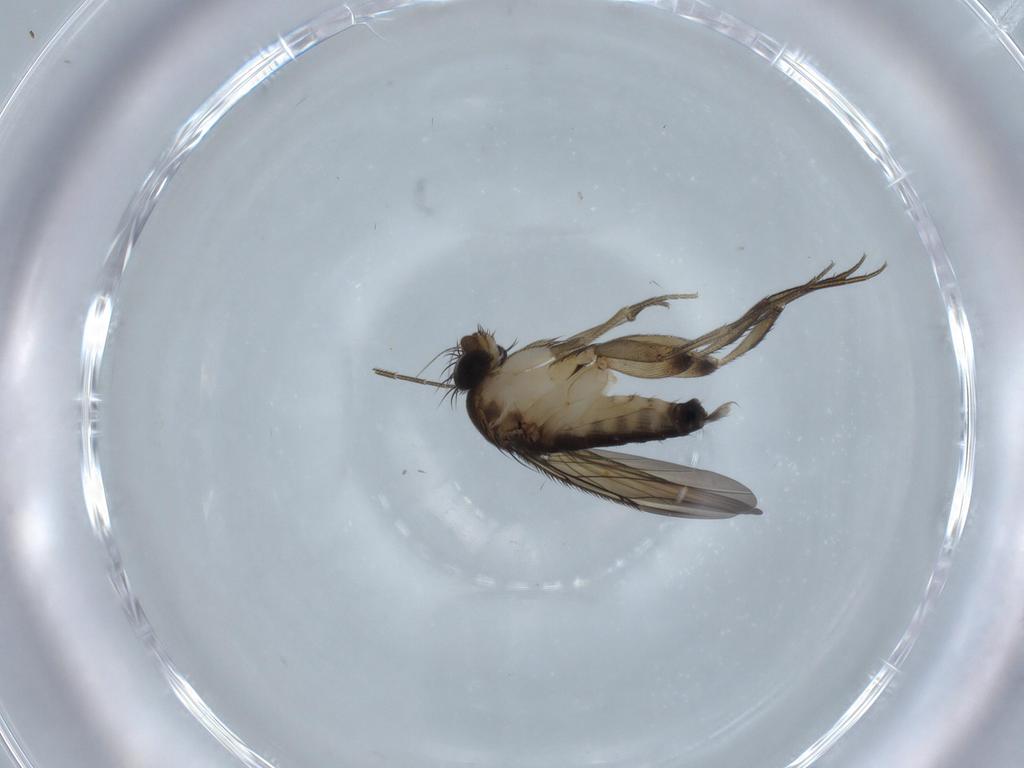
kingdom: Animalia
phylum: Arthropoda
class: Insecta
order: Diptera
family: Phoridae
